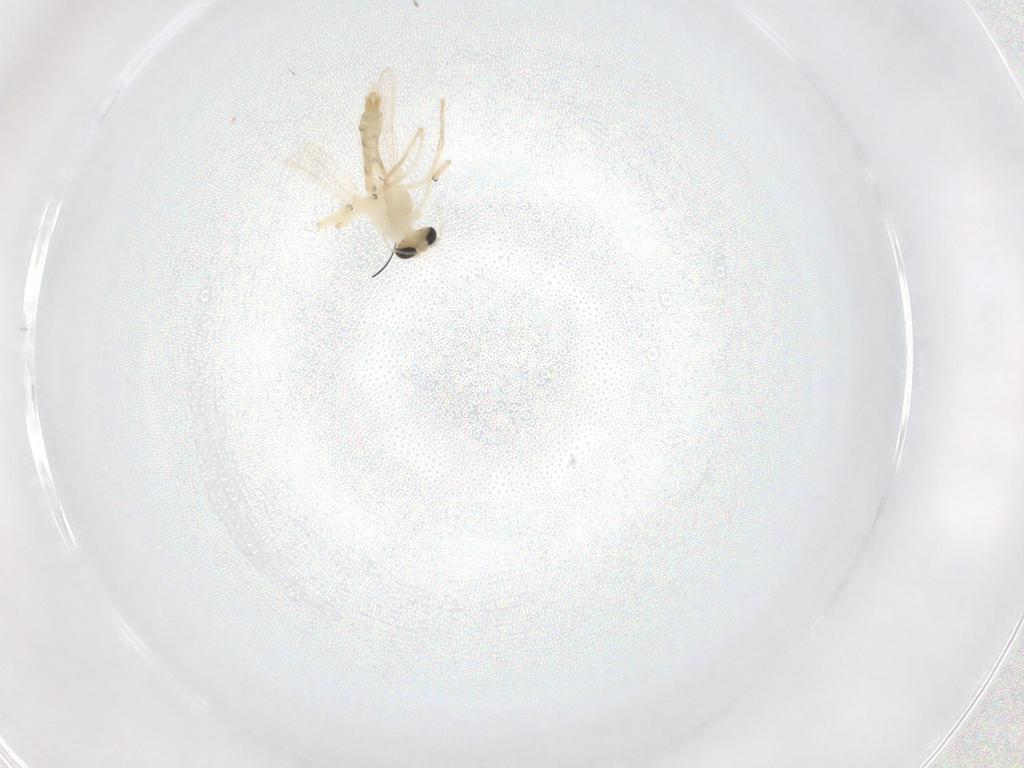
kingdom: Animalia
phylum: Arthropoda
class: Insecta
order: Diptera
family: Chironomidae
